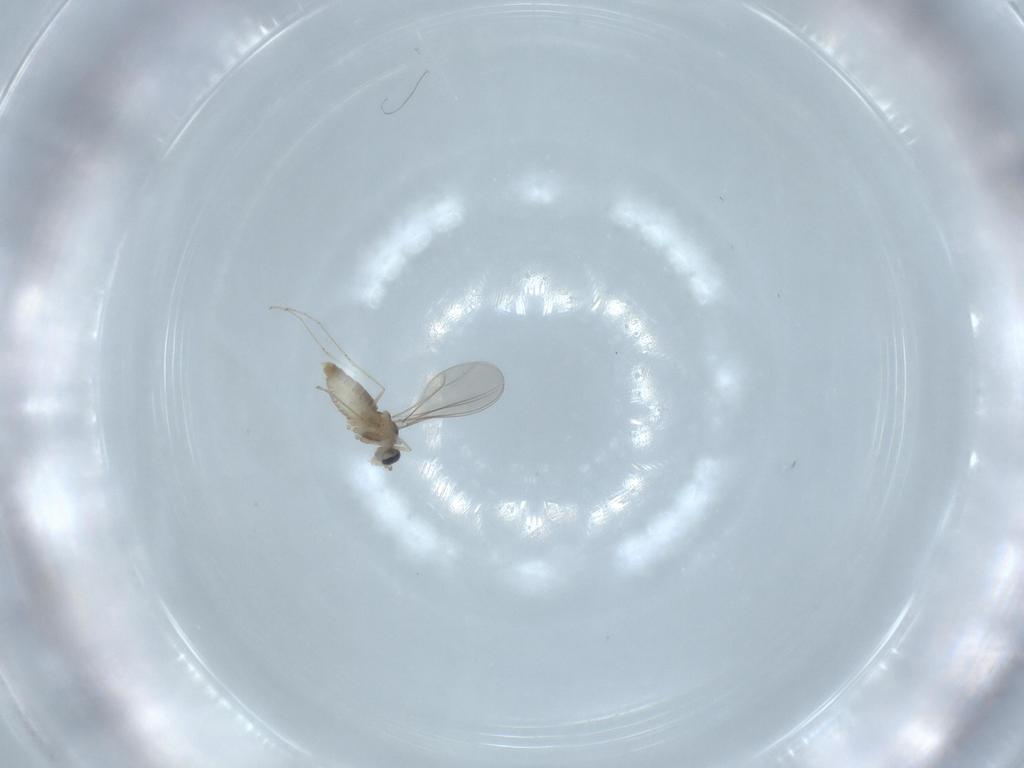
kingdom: Animalia
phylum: Arthropoda
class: Insecta
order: Diptera
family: Cecidomyiidae
